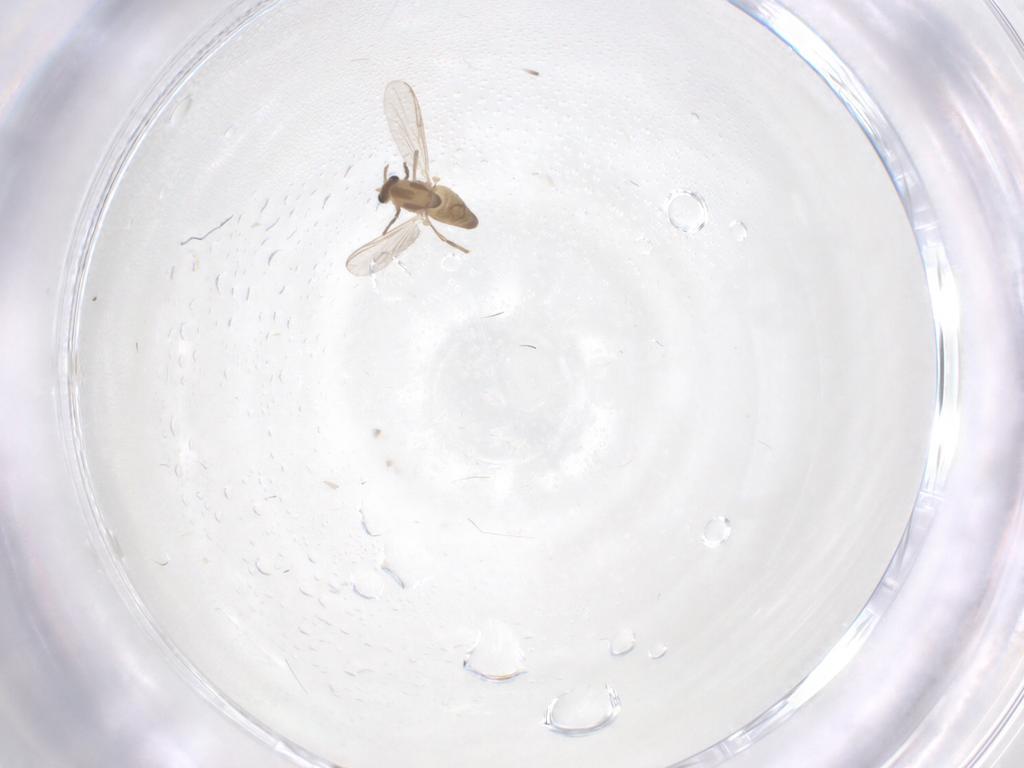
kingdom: Animalia
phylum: Arthropoda
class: Insecta
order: Diptera
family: Chironomidae
